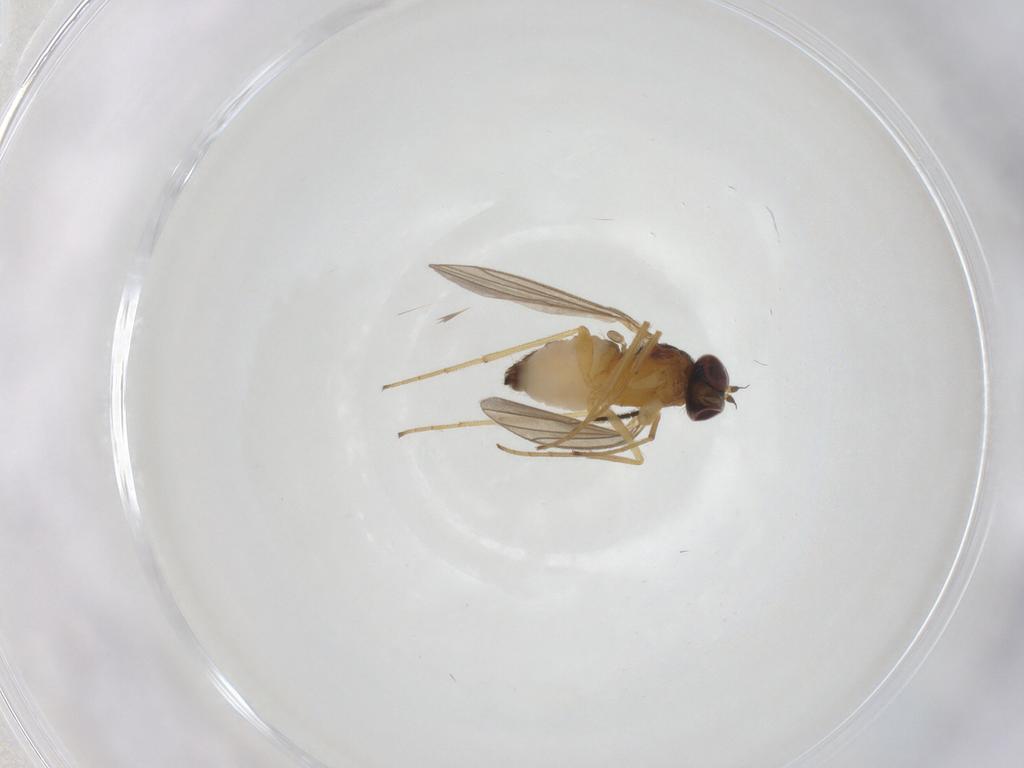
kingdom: Animalia
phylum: Arthropoda
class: Insecta
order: Diptera
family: Dolichopodidae
